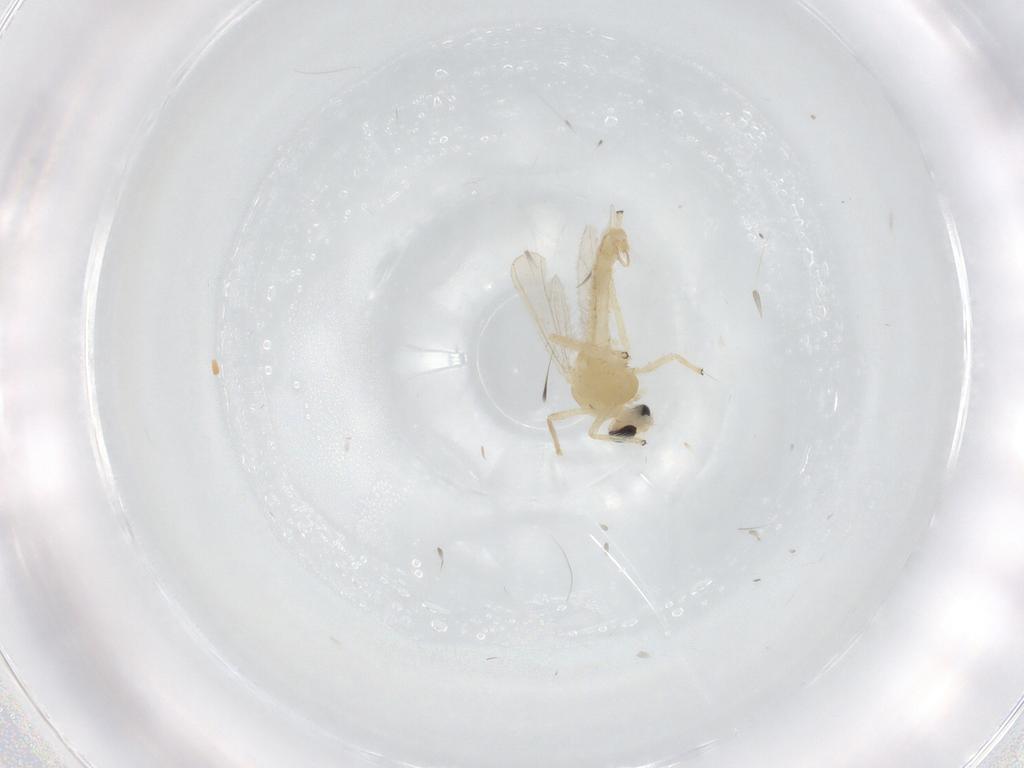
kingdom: Animalia
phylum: Arthropoda
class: Insecta
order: Diptera
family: Chironomidae
